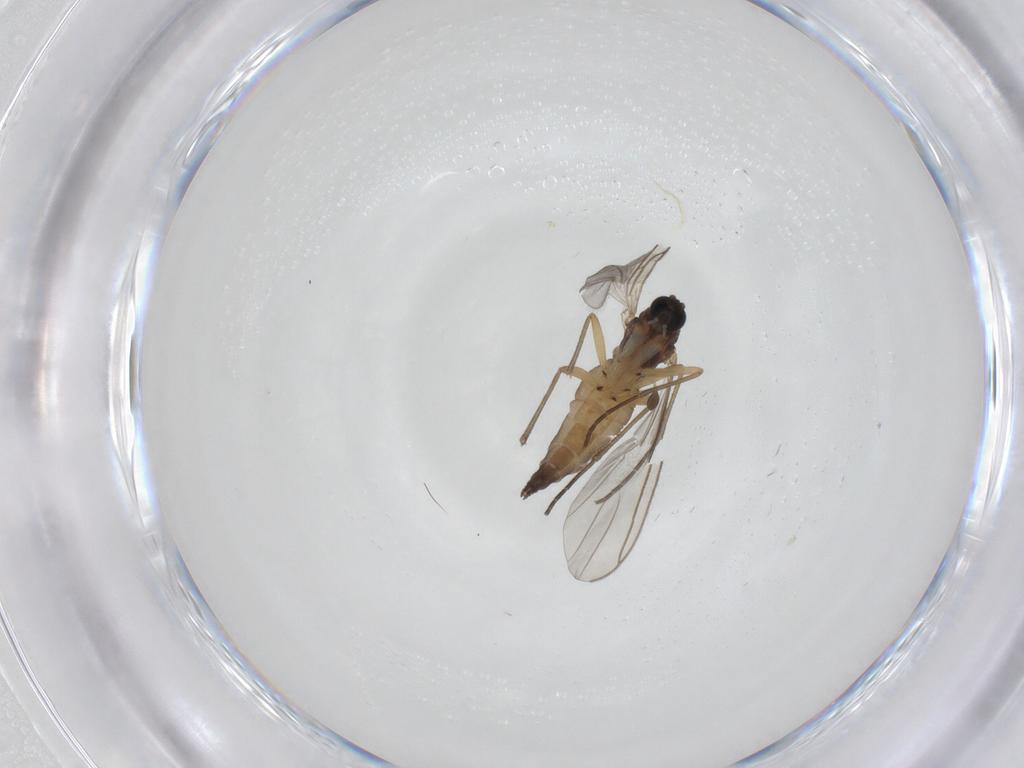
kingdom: Animalia
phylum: Arthropoda
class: Insecta
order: Diptera
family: Sciaridae
